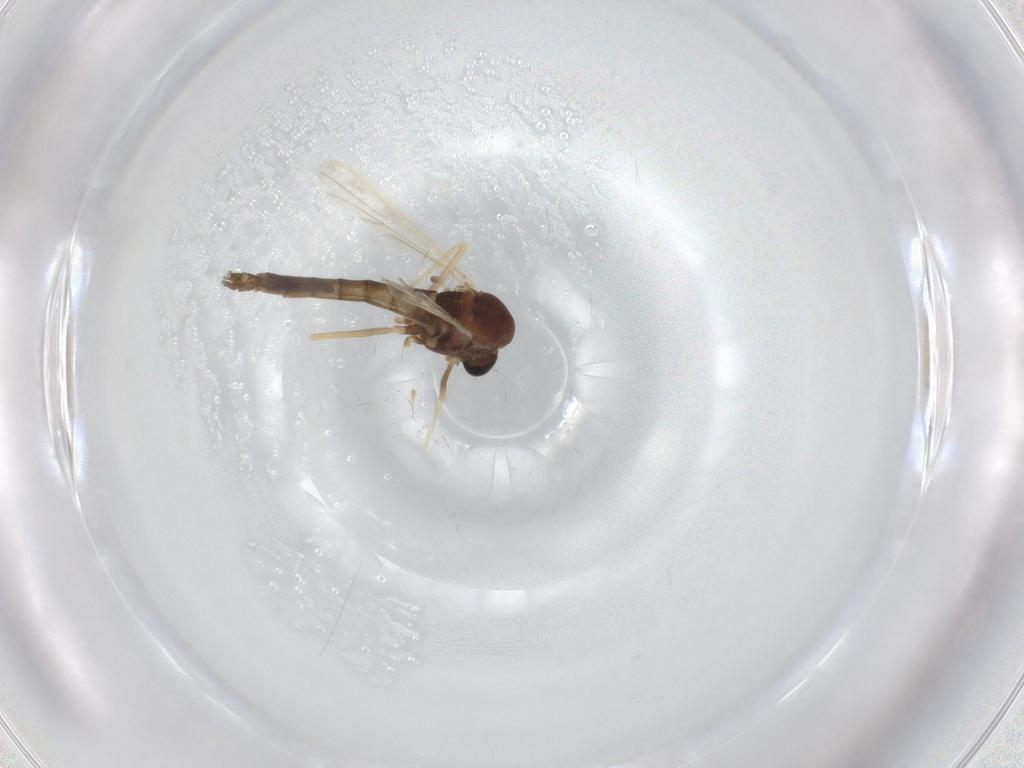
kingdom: Animalia
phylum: Arthropoda
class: Insecta
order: Diptera
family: Chironomidae
